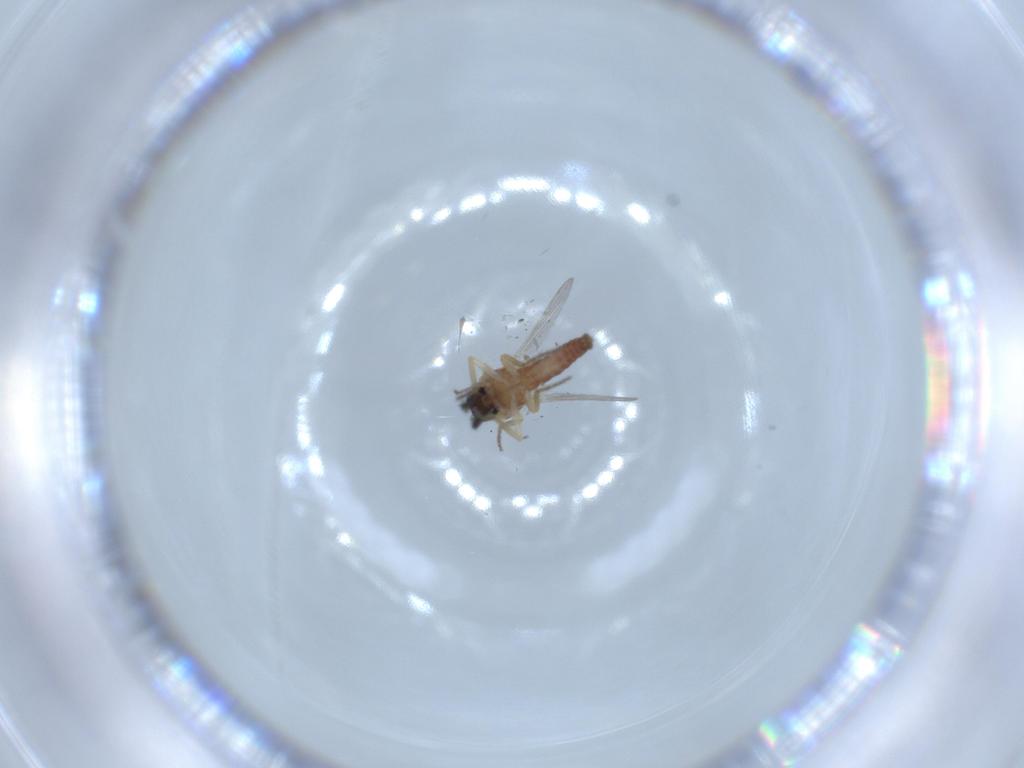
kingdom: Animalia
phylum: Arthropoda
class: Insecta
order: Diptera
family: Ceratopogonidae
